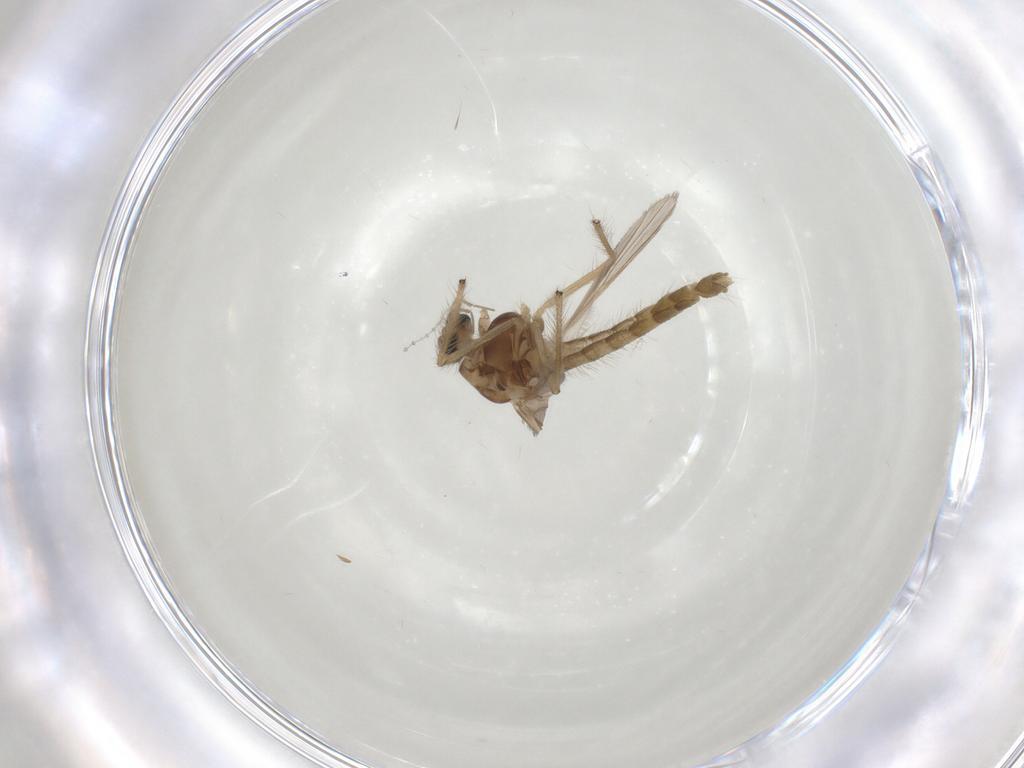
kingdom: Animalia
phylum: Arthropoda
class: Insecta
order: Diptera
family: Chironomidae
